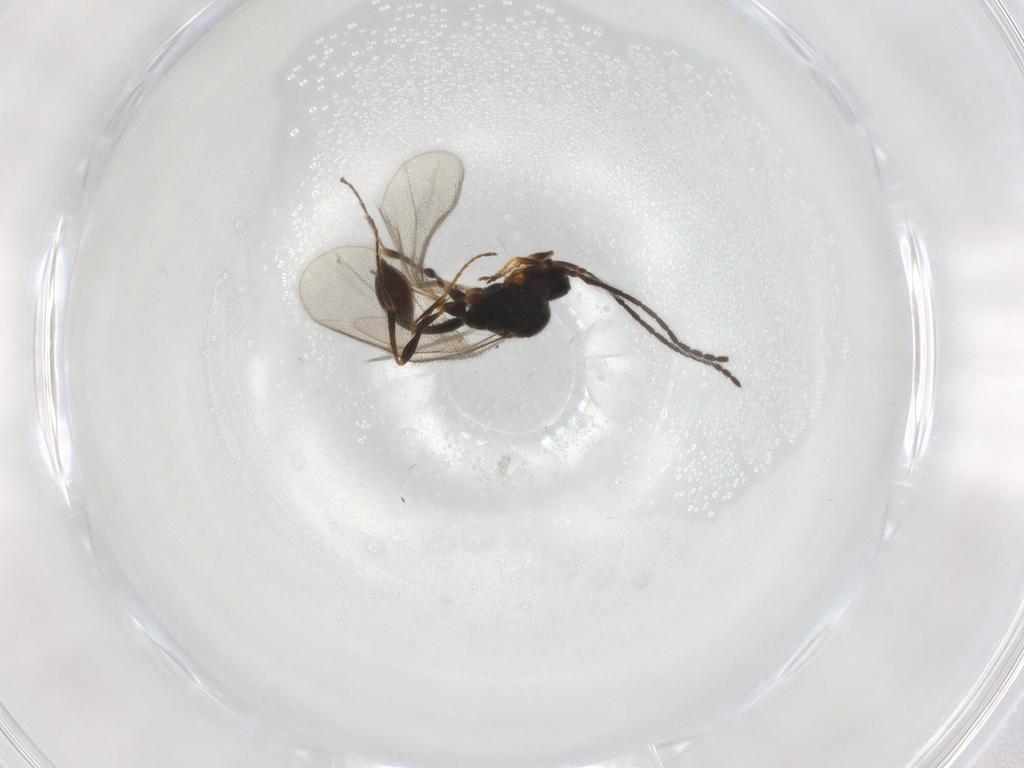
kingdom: Animalia
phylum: Arthropoda
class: Insecta
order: Hymenoptera
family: Diapriidae
